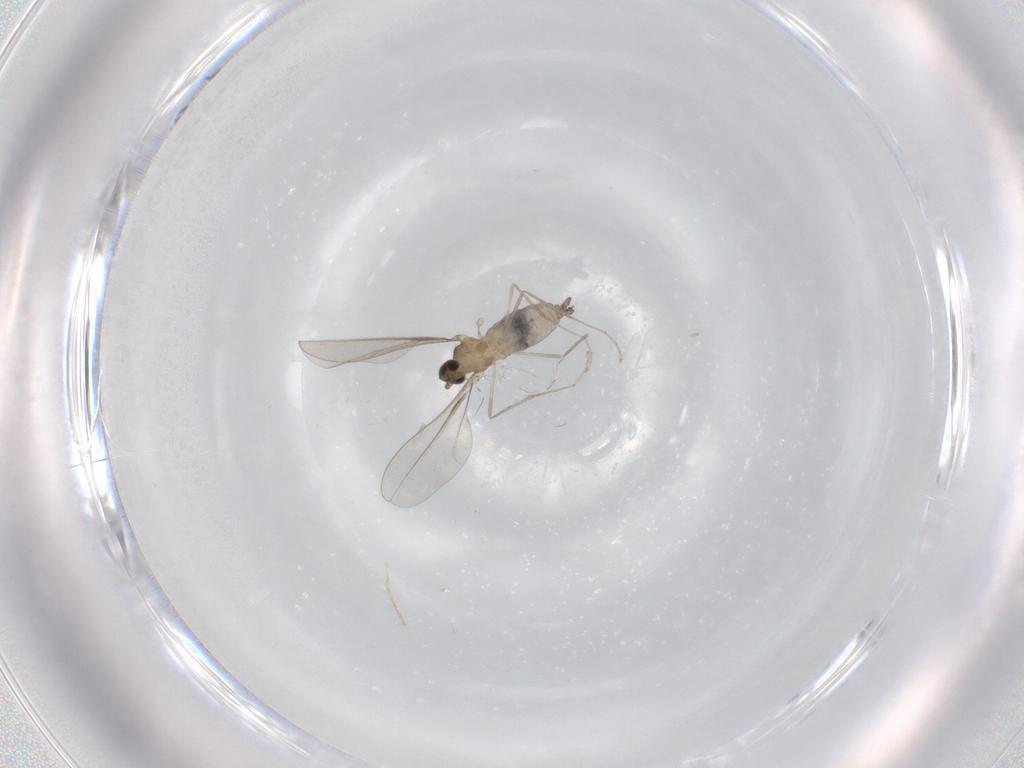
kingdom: Animalia
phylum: Arthropoda
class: Insecta
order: Diptera
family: Cecidomyiidae
